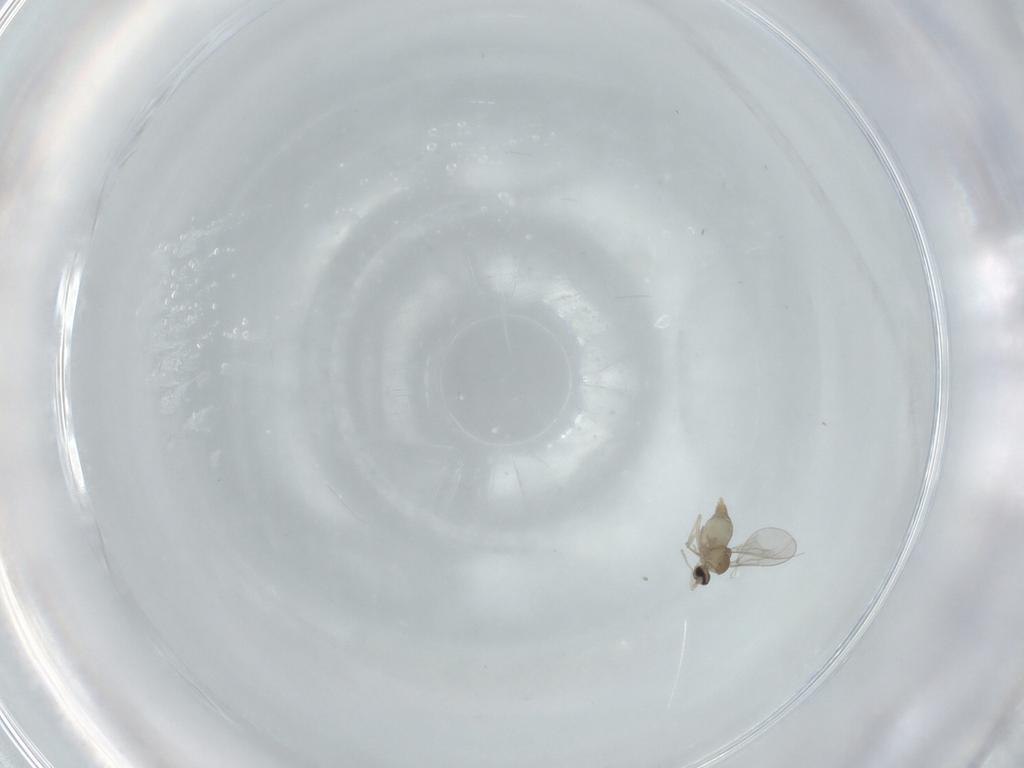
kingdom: Animalia
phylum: Arthropoda
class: Insecta
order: Diptera
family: Cecidomyiidae
